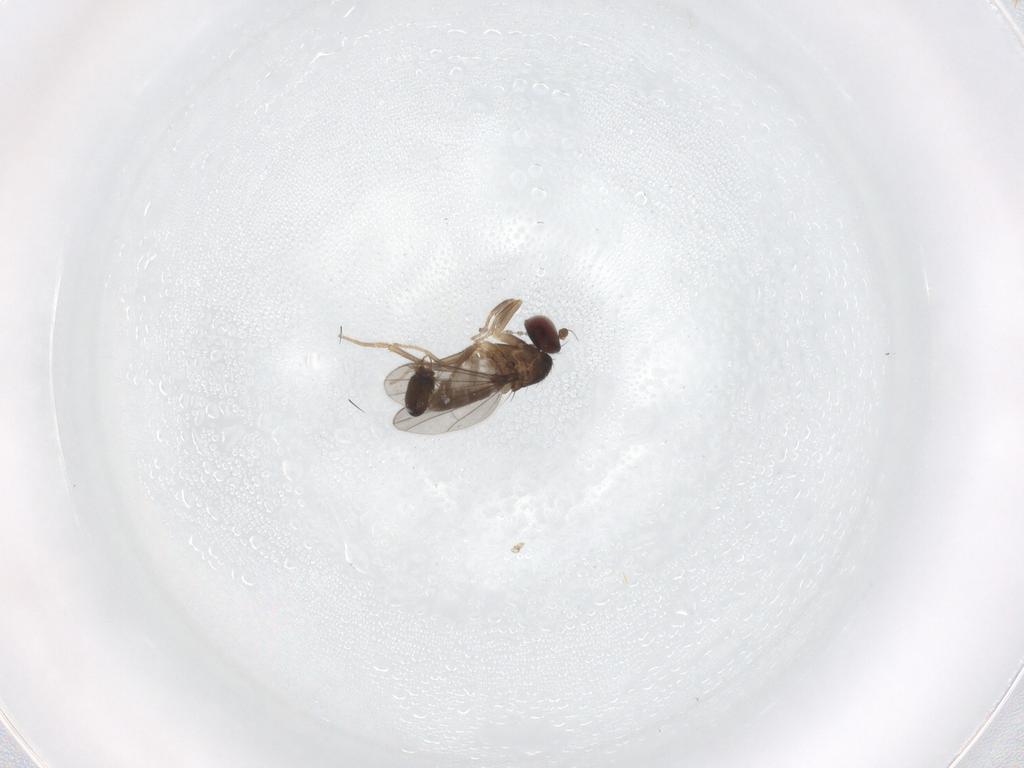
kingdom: Animalia
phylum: Arthropoda
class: Insecta
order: Diptera
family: Dolichopodidae
